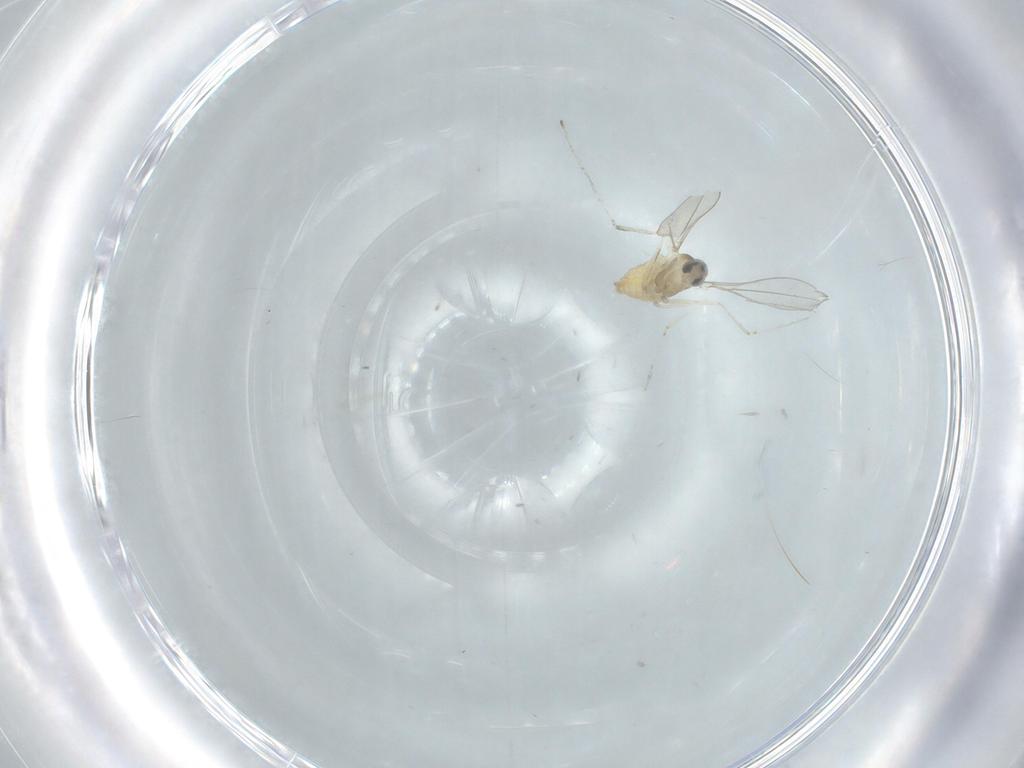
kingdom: Animalia
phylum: Arthropoda
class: Insecta
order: Diptera
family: Cecidomyiidae
